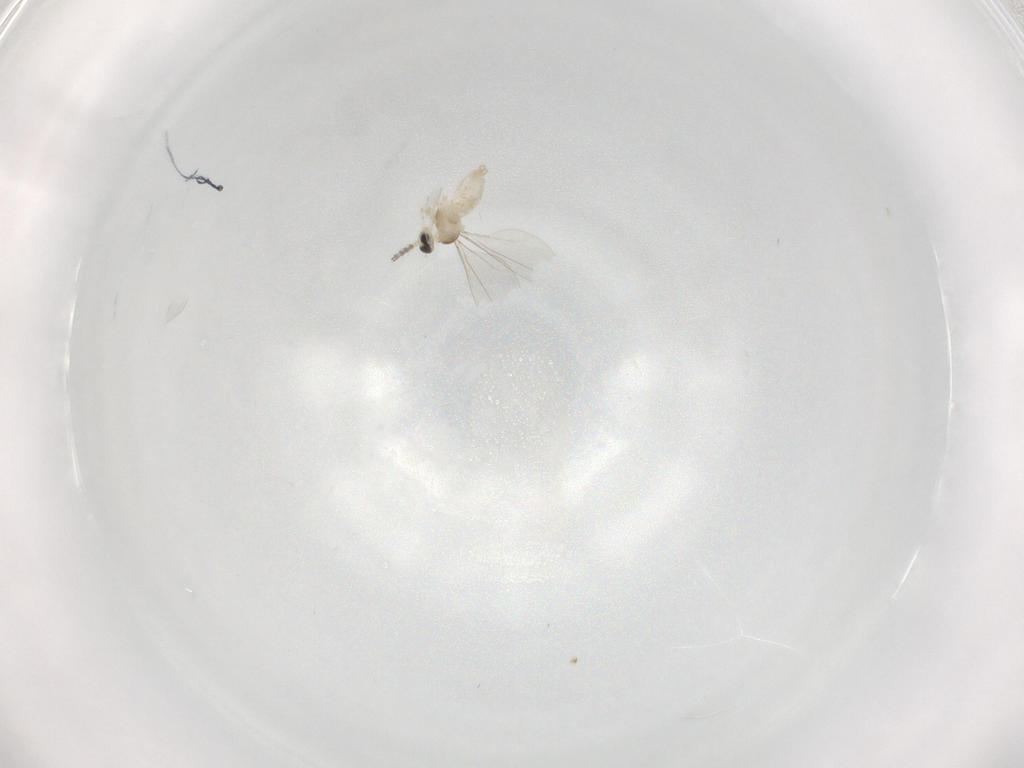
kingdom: Animalia
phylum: Arthropoda
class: Insecta
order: Diptera
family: Cecidomyiidae
